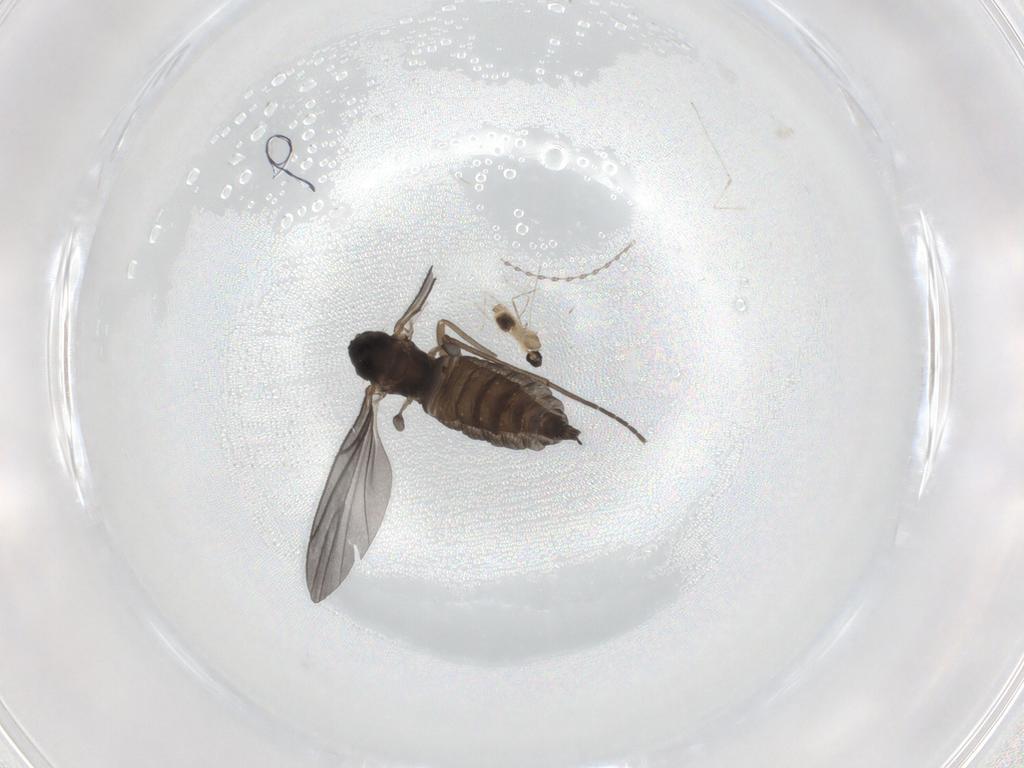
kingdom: Animalia
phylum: Arthropoda
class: Insecta
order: Diptera
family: Sciaridae
